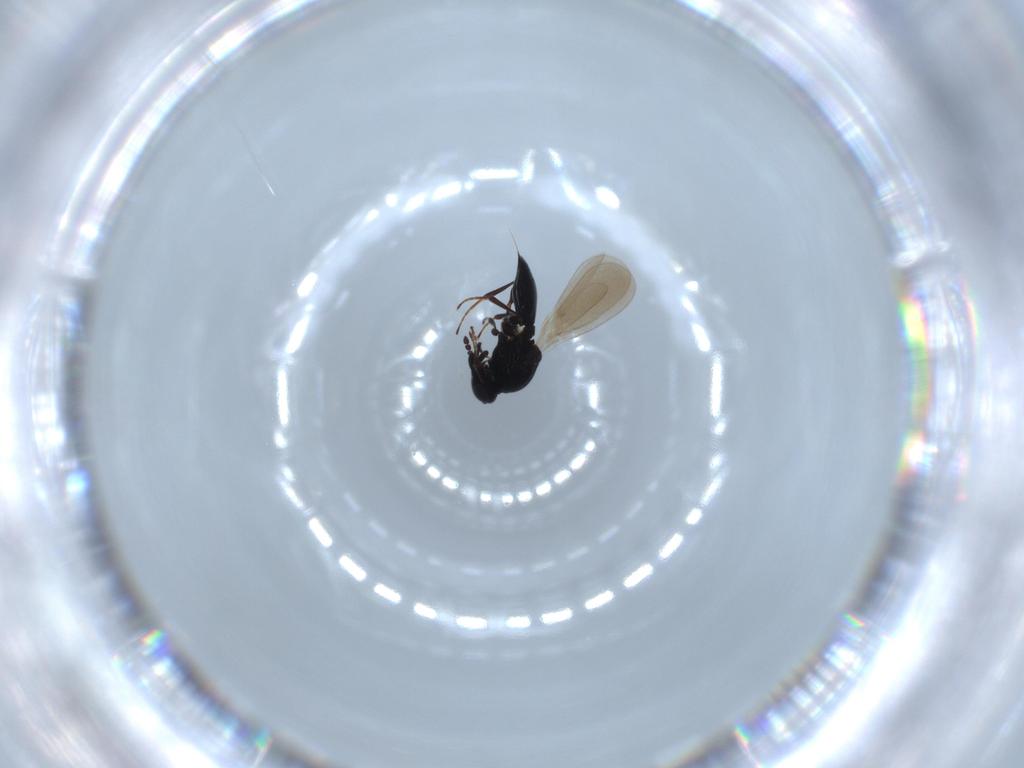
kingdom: Animalia
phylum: Arthropoda
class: Insecta
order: Hymenoptera
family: Platygastridae
